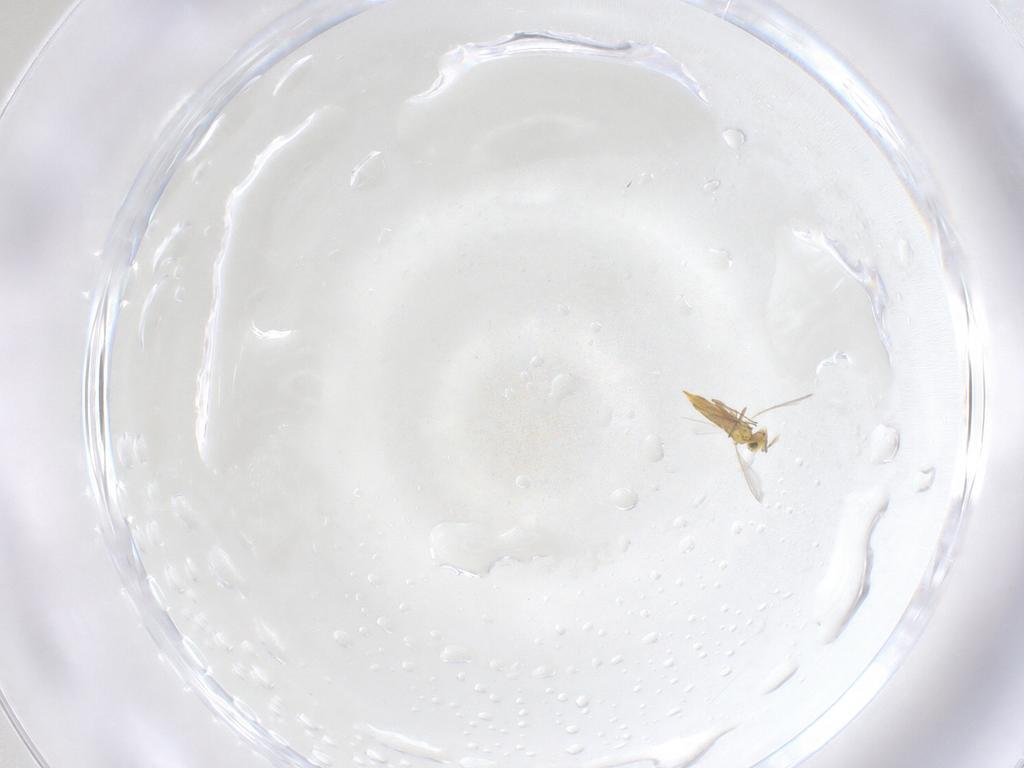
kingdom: Animalia
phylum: Arthropoda
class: Insecta
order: Hymenoptera
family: Aphelinidae
